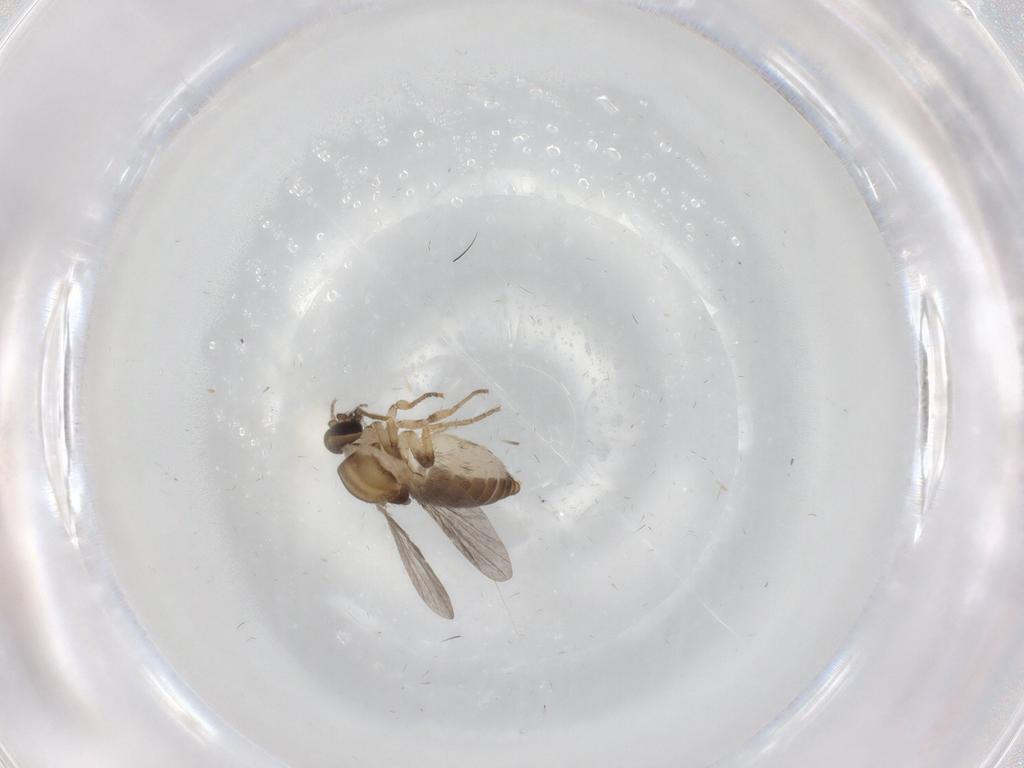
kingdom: Animalia
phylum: Arthropoda
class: Insecta
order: Diptera
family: Ceratopogonidae
